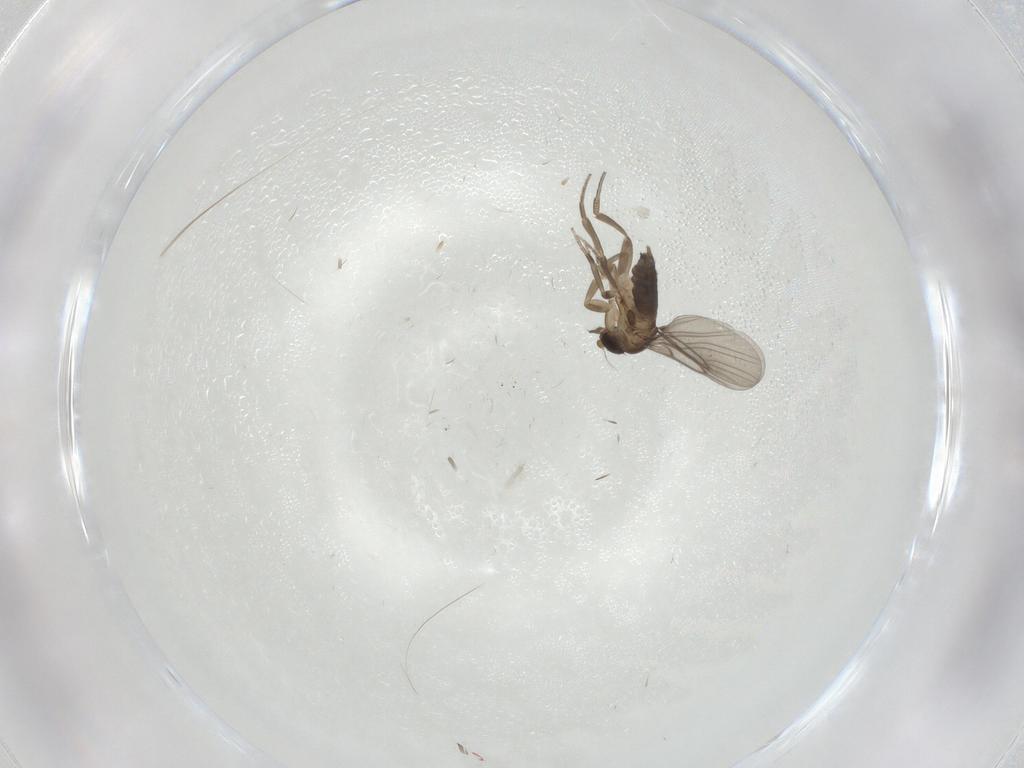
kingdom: Animalia
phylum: Arthropoda
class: Insecta
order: Diptera
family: Phoridae
